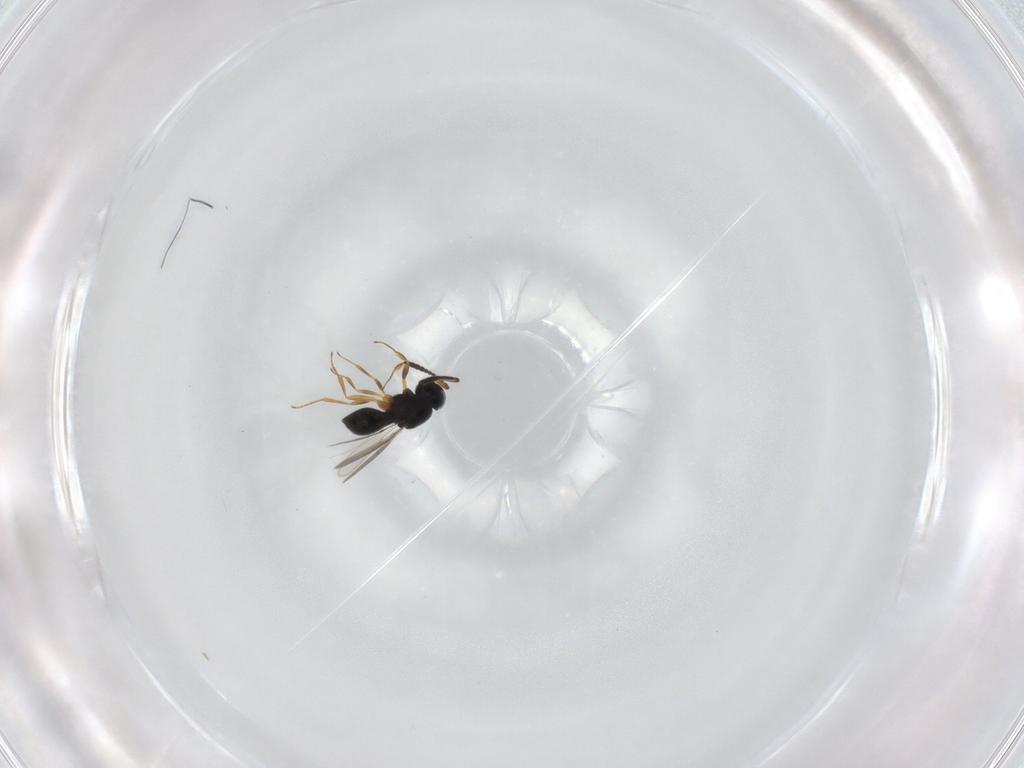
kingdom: Animalia
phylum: Arthropoda
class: Insecta
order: Hymenoptera
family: Scelionidae
